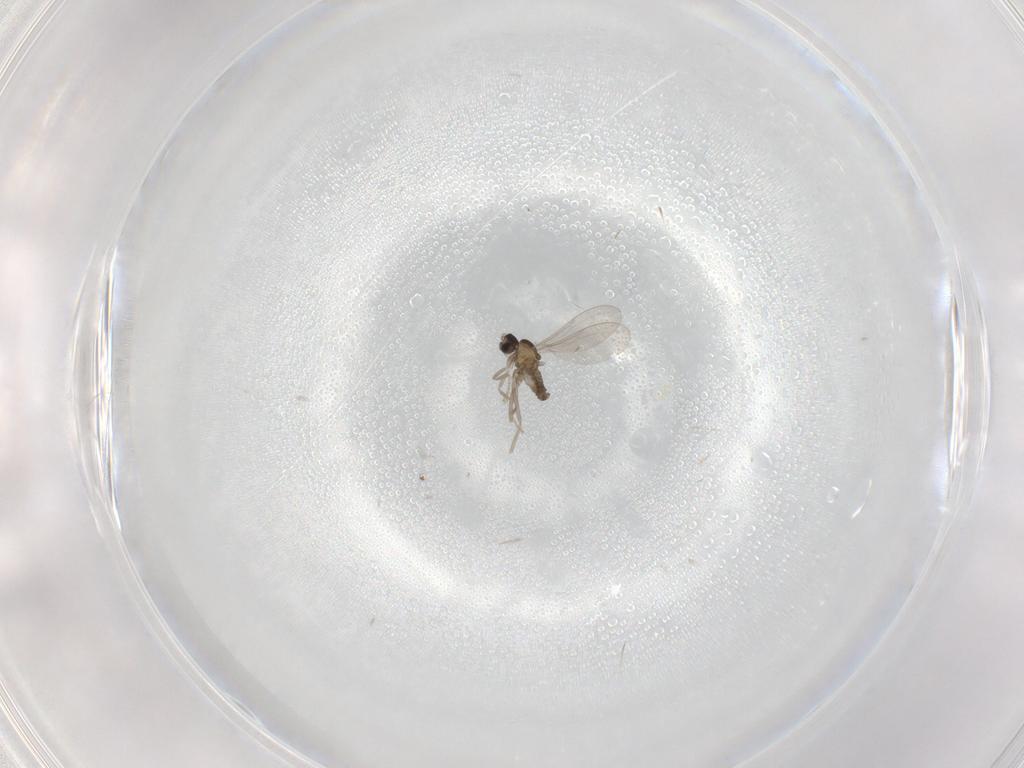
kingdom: Animalia
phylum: Arthropoda
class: Insecta
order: Diptera
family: Cecidomyiidae
